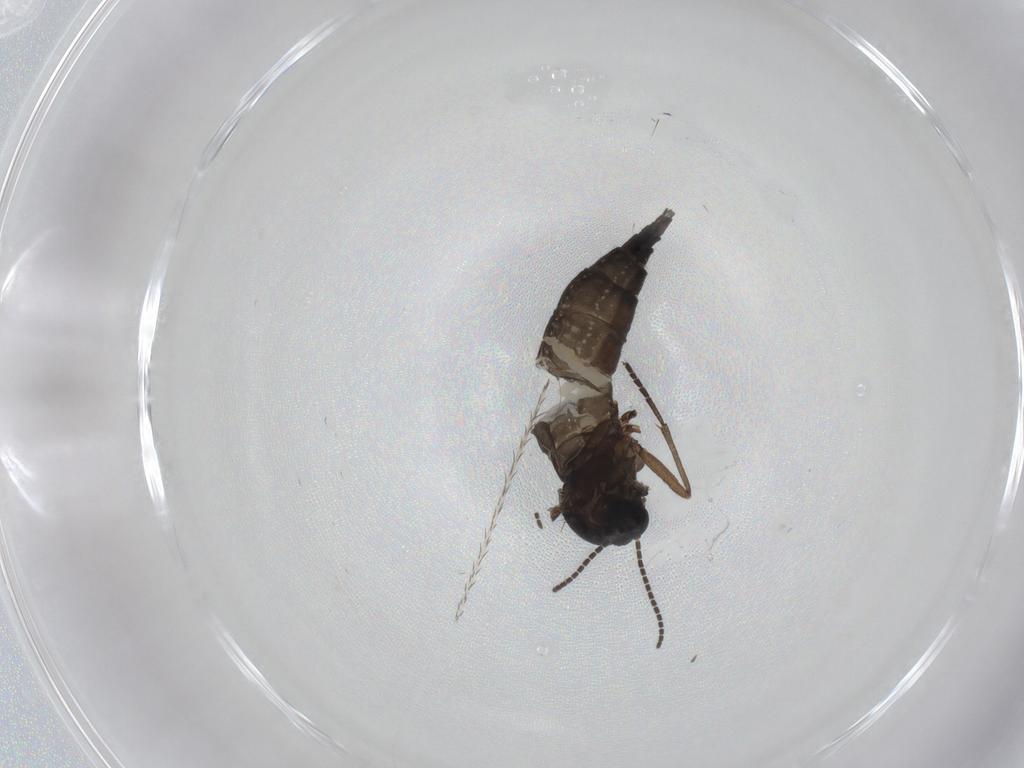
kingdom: Animalia
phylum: Arthropoda
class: Insecta
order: Diptera
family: Sciaridae
